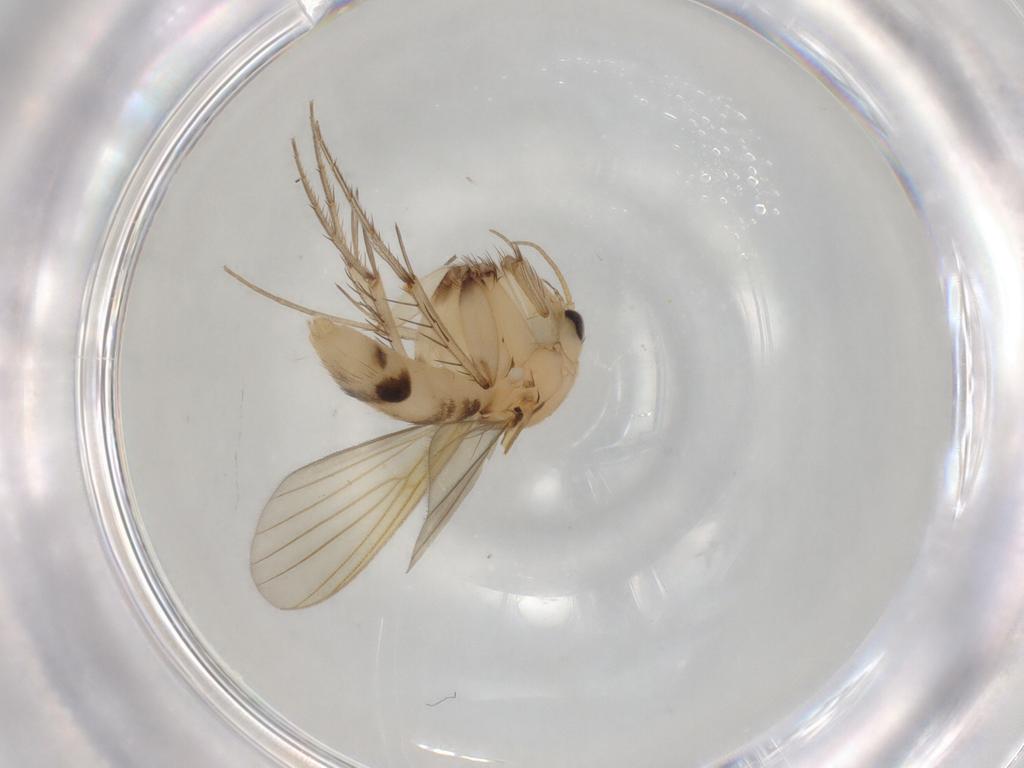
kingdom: Animalia
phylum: Arthropoda
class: Insecta
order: Diptera
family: Mycetophilidae
